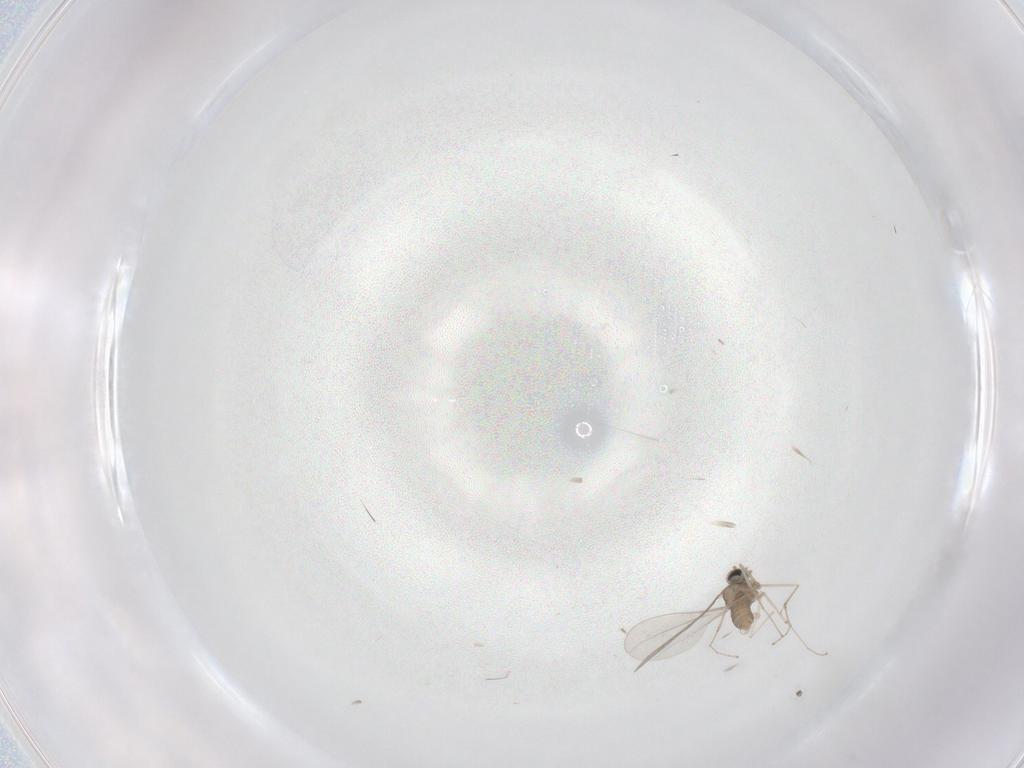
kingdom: Animalia
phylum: Arthropoda
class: Insecta
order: Diptera
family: Cecidomyiidae
